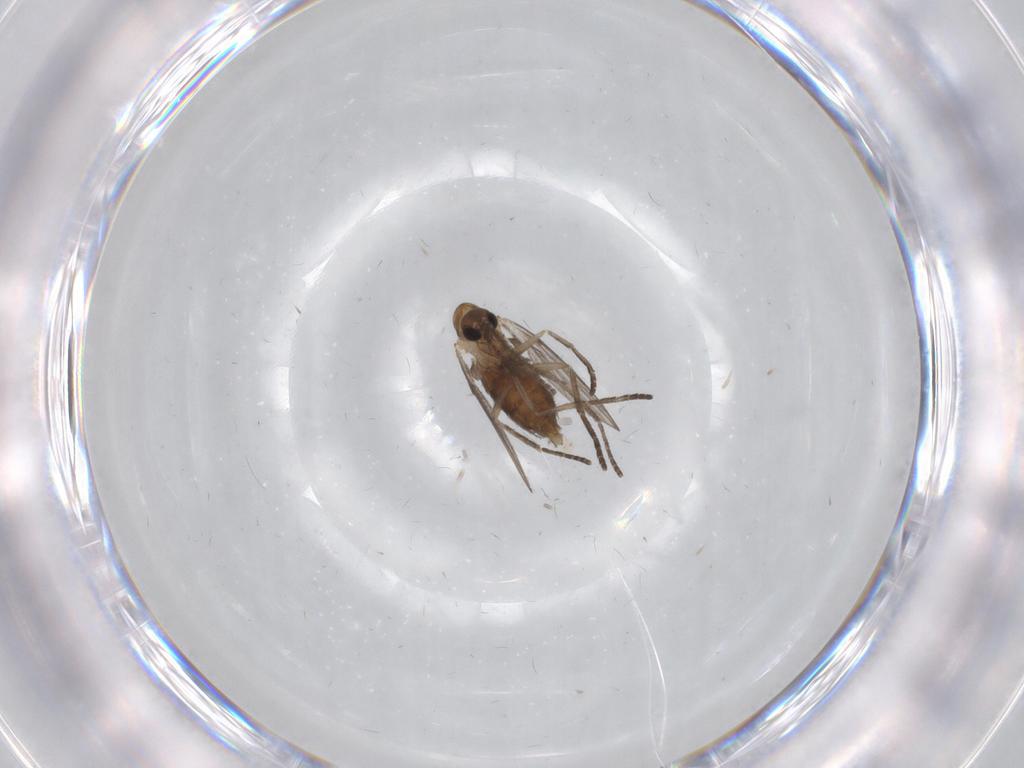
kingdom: Animalia
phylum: Arthropoda
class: Insecta
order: Diptera
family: Psychodidae
